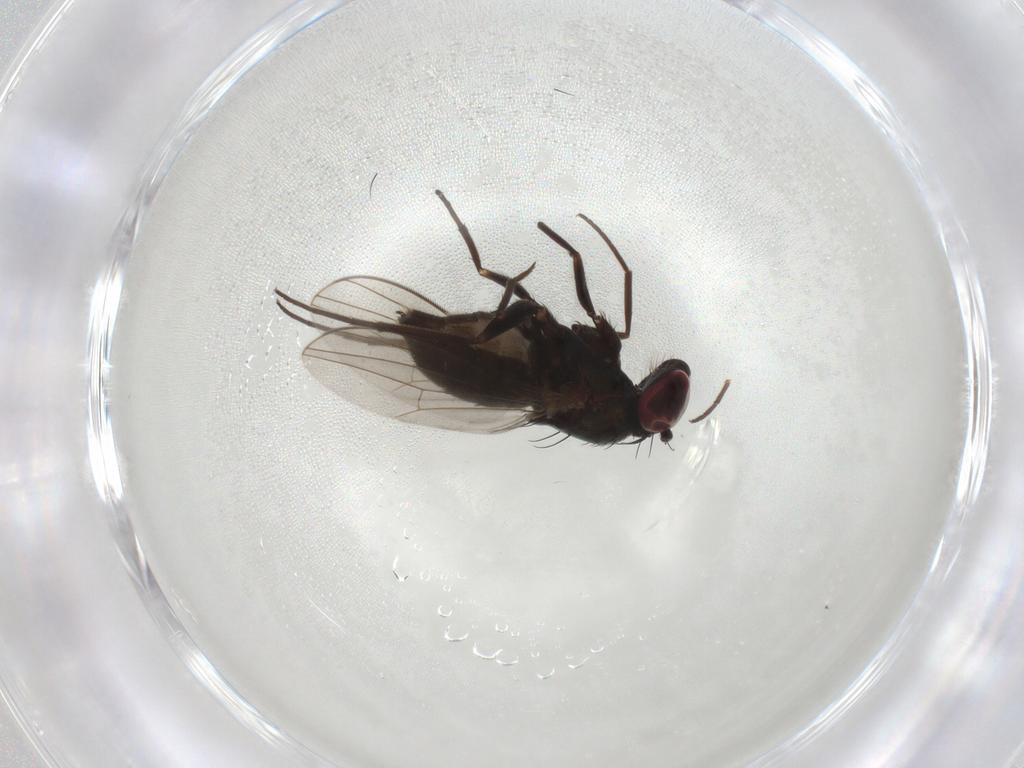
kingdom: Animalia
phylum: Arthropoda
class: Insecta
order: Diptera
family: Dolichopodidae
